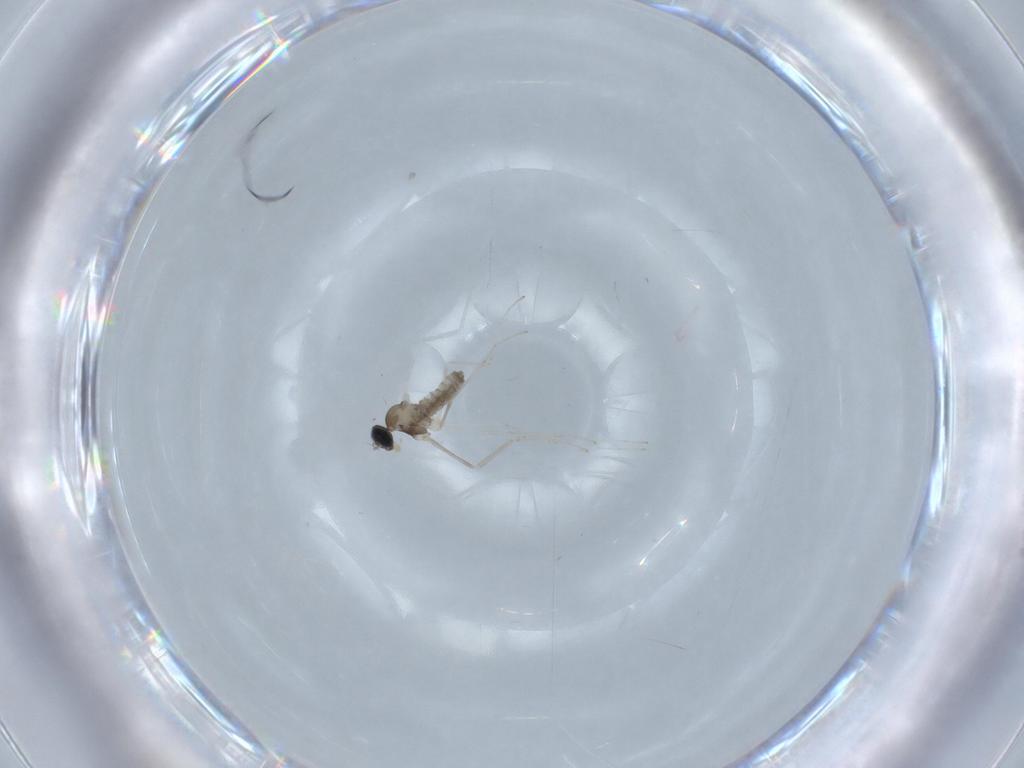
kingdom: Animalia
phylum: Arthropoda
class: Insecta
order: Diptera
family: Cecidomyiidae
